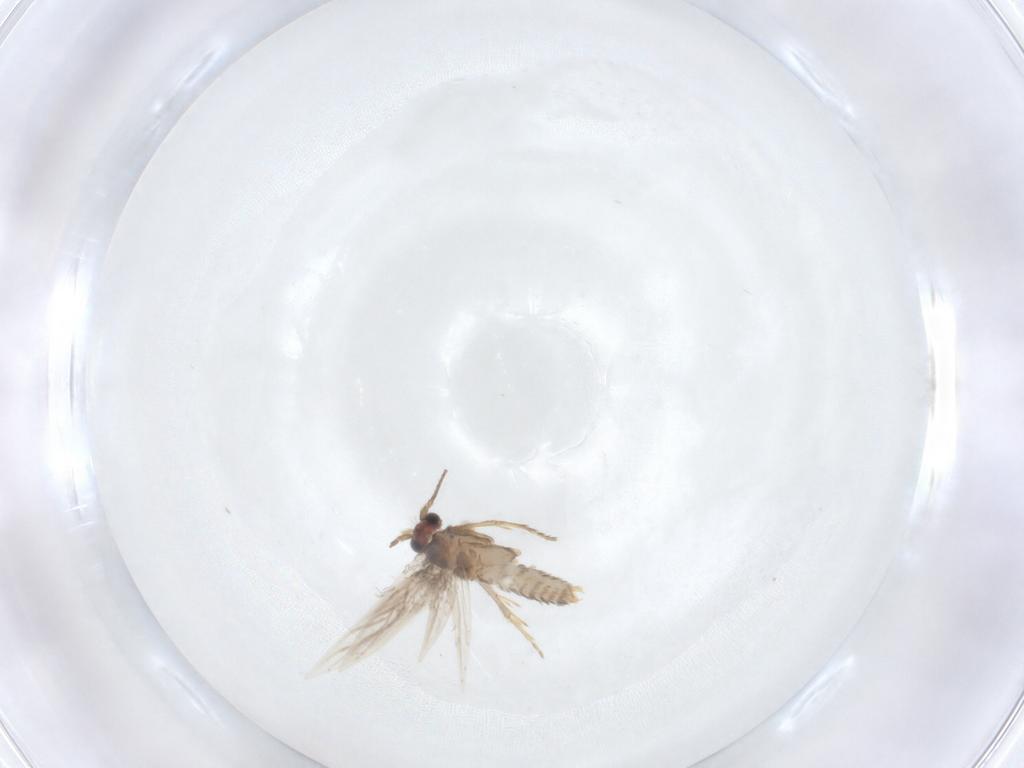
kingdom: Animalia
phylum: Arthropoda
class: Insecta
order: Lepidoptera
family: Nepticulidae
